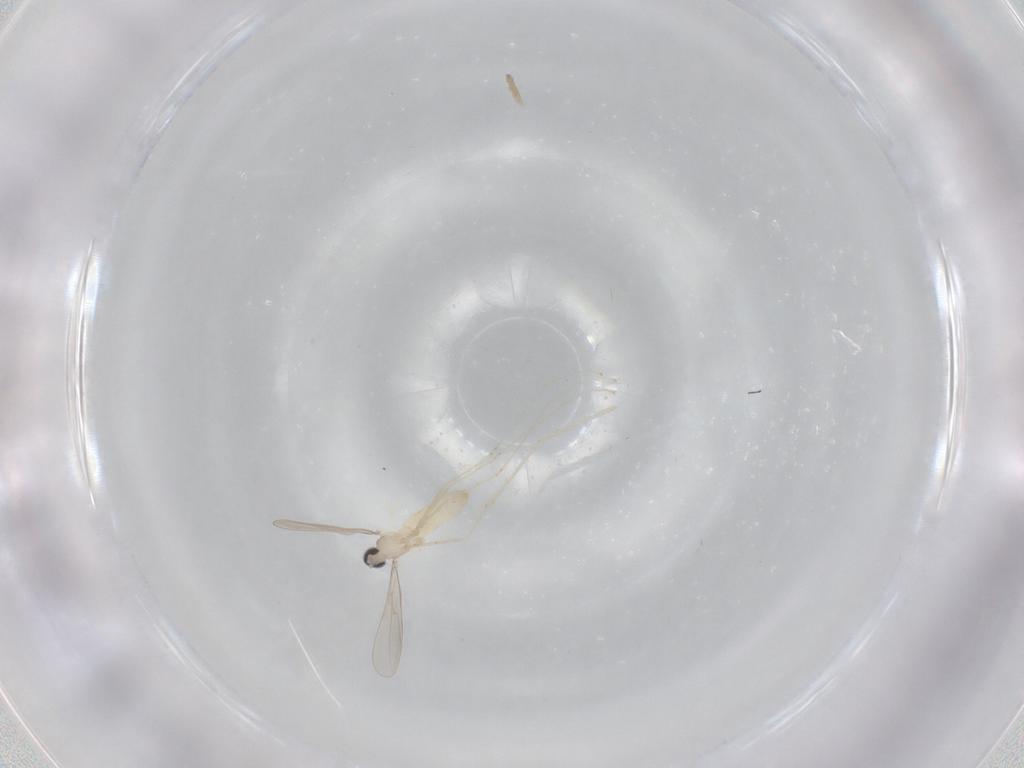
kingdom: Animalia
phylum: Arthropoda
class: Insecta
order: Diptera
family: Cecidomyiidae
